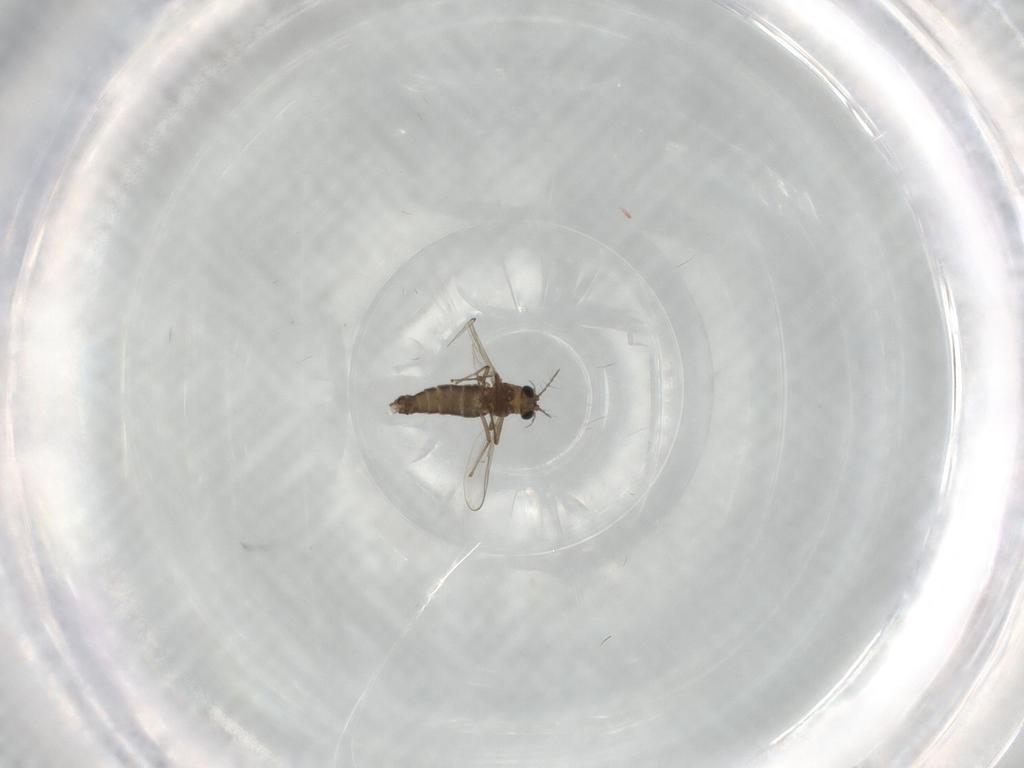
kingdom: Animalia
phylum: Arthropoda
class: Insecta
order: Diptera
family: Chironomidae
